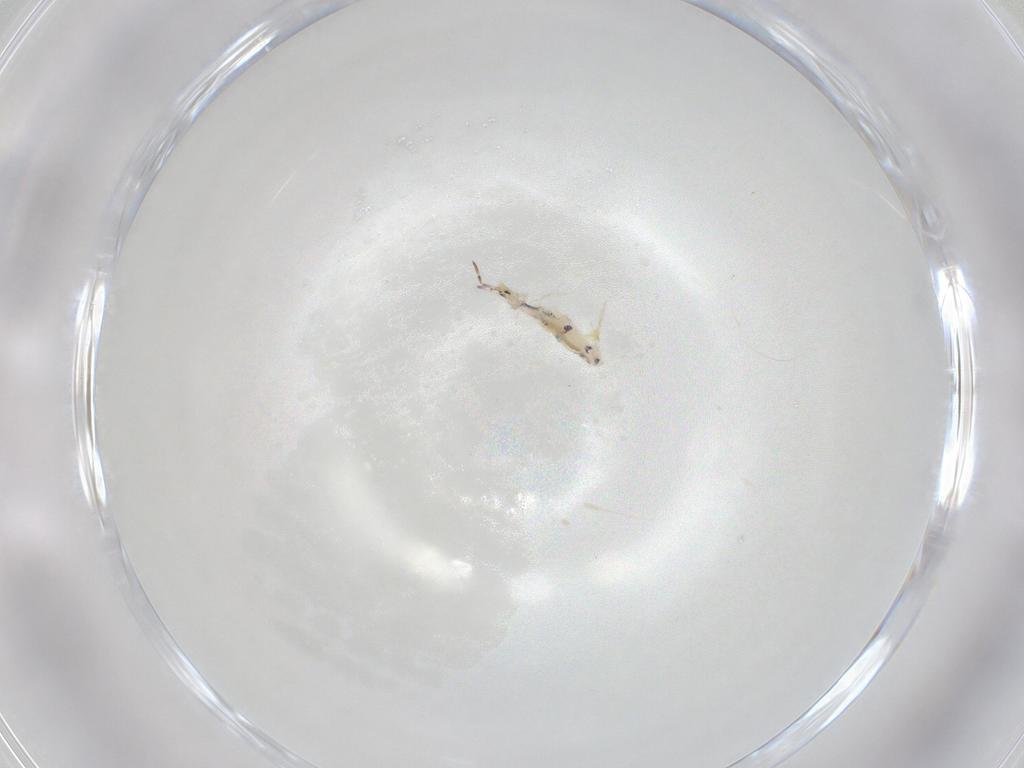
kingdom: Animalia
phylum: Arthropoda
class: Collembola
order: Entomobryomorpha
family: Entomobryidae
